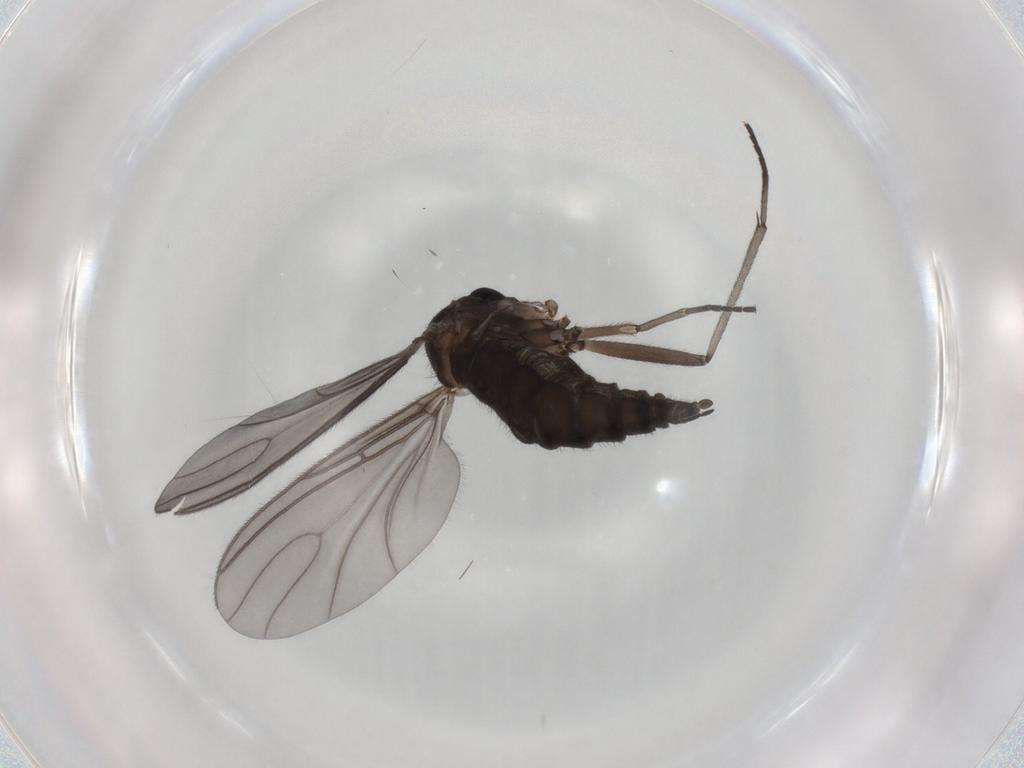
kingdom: Animalia
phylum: Arthropoda
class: Insecta
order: Diptera
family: Sciaridae
